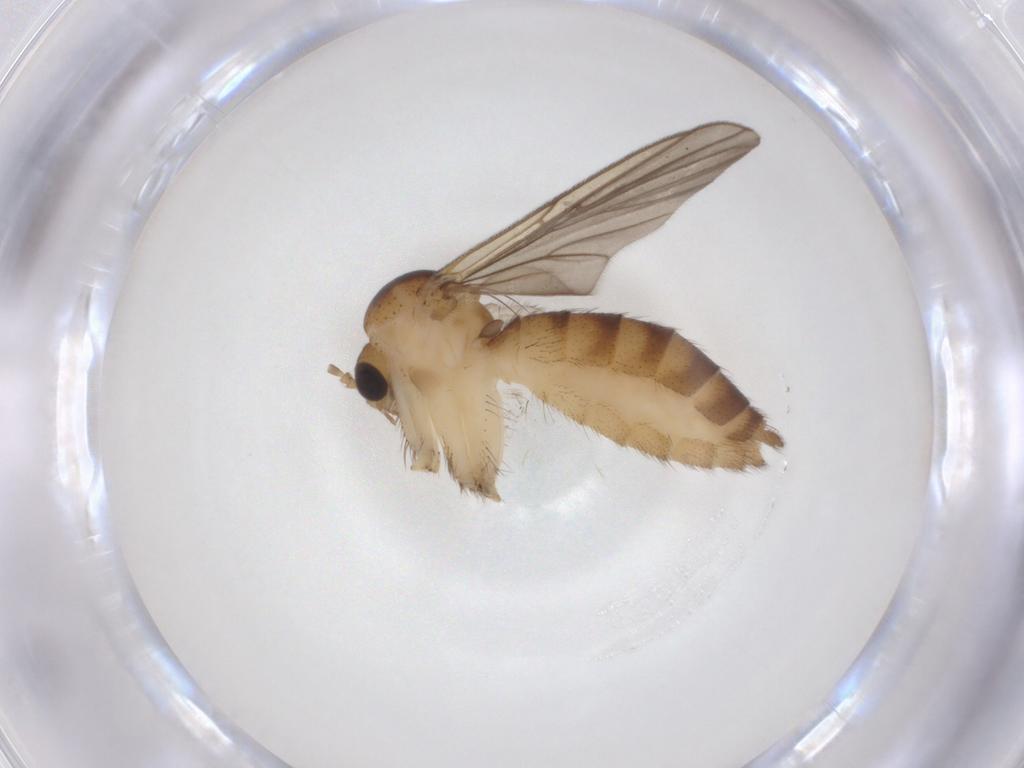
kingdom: Animalia
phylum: Arthropoda
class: Insecta
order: Diptera
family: Mycetophilidae
